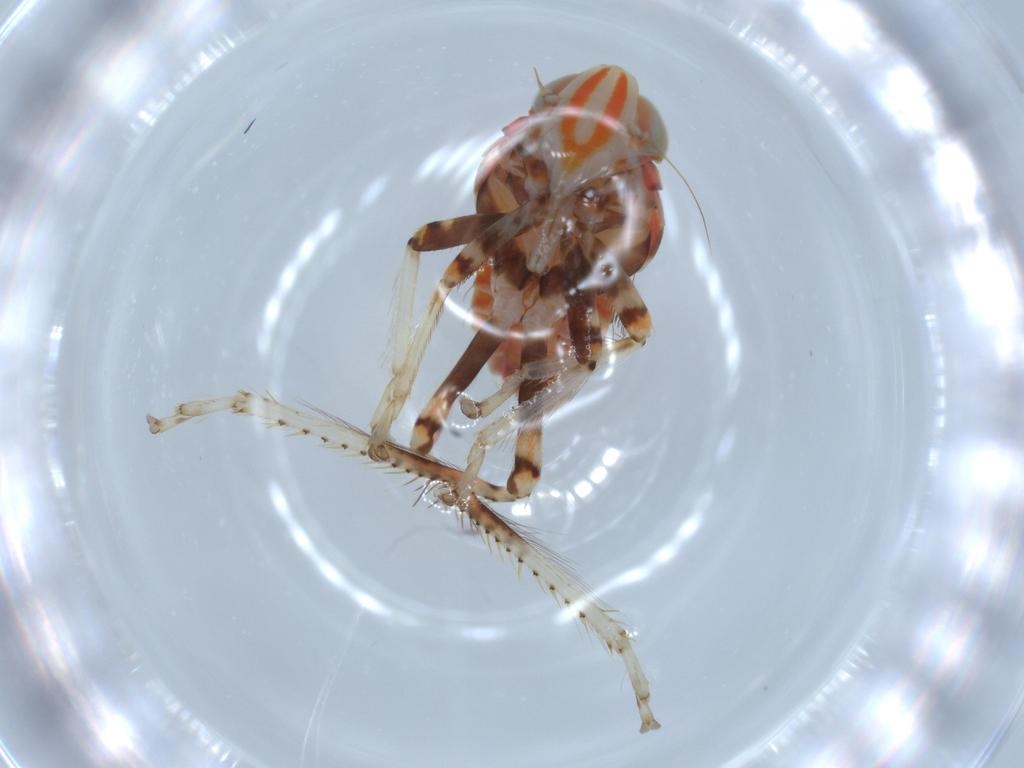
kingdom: Animalia
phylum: Arthropoda
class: Insecta
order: Hemiptera
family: Cicadellidae
